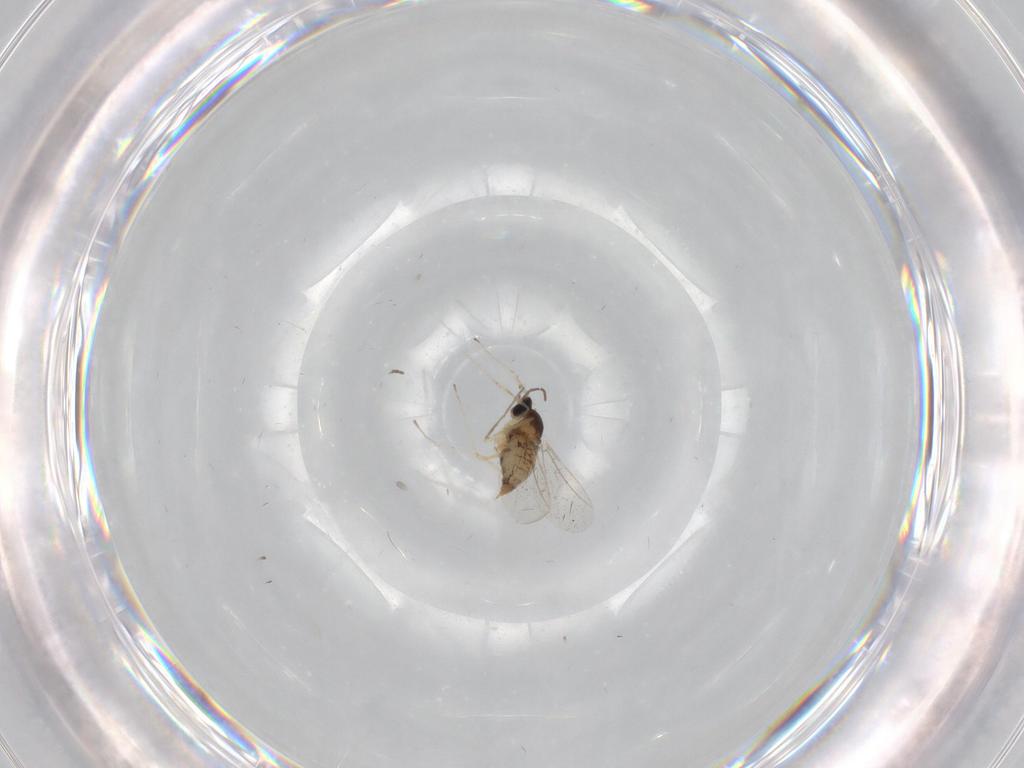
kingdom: Animalia
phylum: Arthropoda
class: Insecta
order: Diptera
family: Cecidomyiidae
